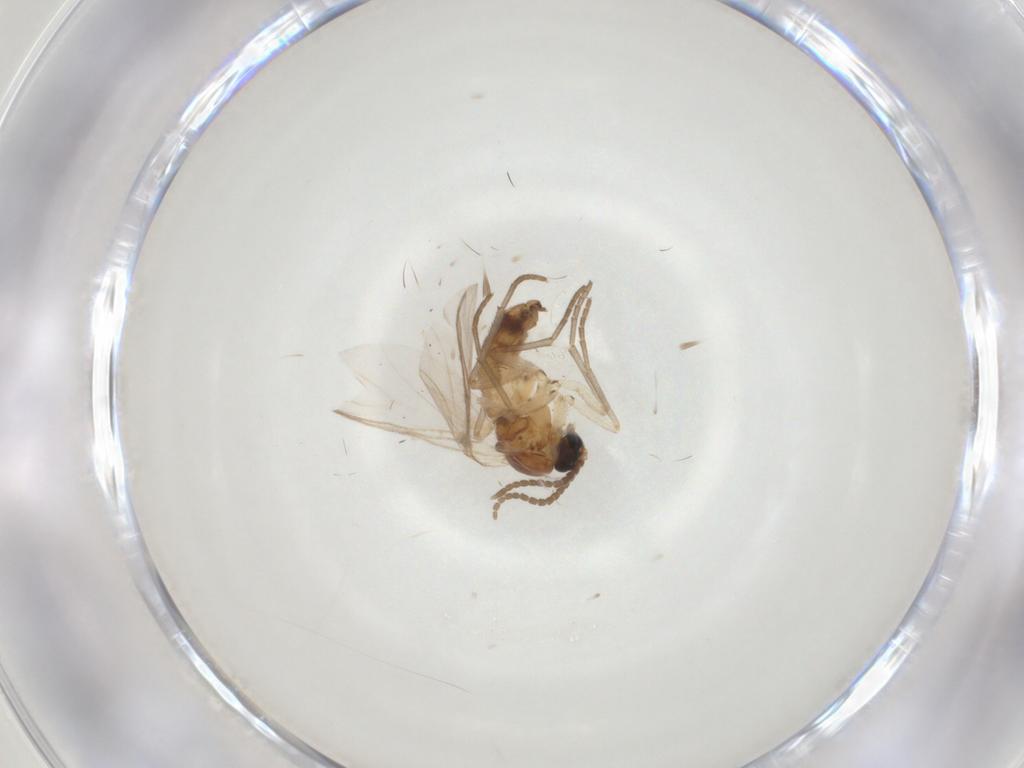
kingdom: Animalia
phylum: Arthropoda
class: Insecta
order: Diptera
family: Sciaridae
